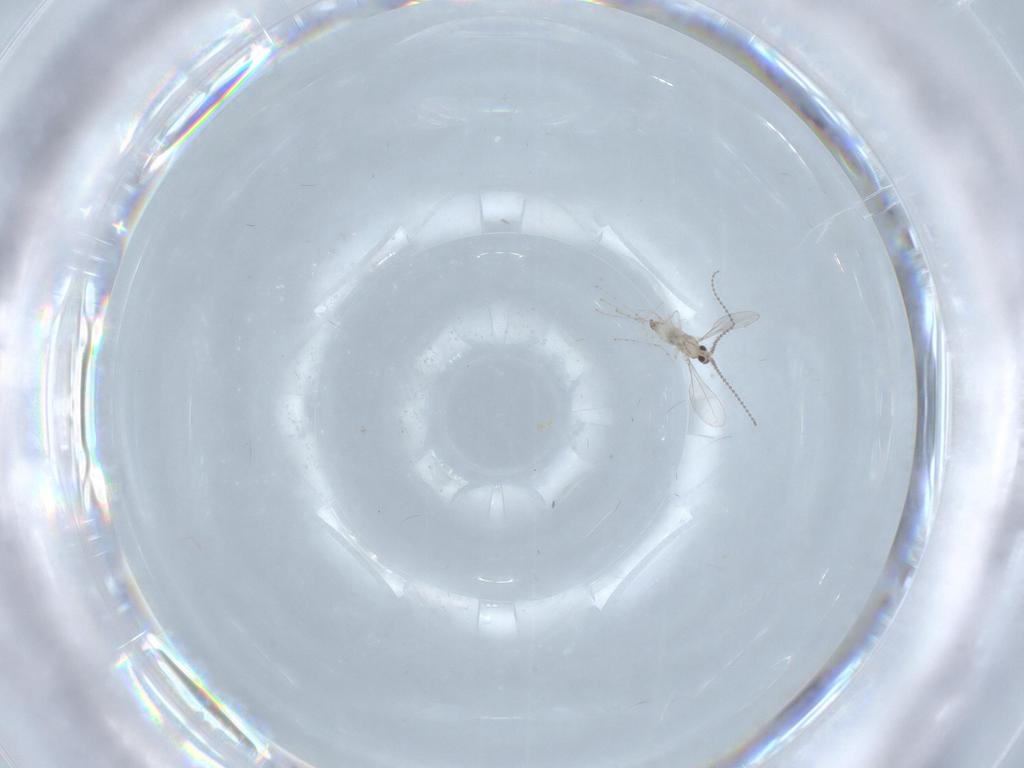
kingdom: Animalia
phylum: Arthropoda
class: Insecta
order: Diptera
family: Cecidomyiidae
